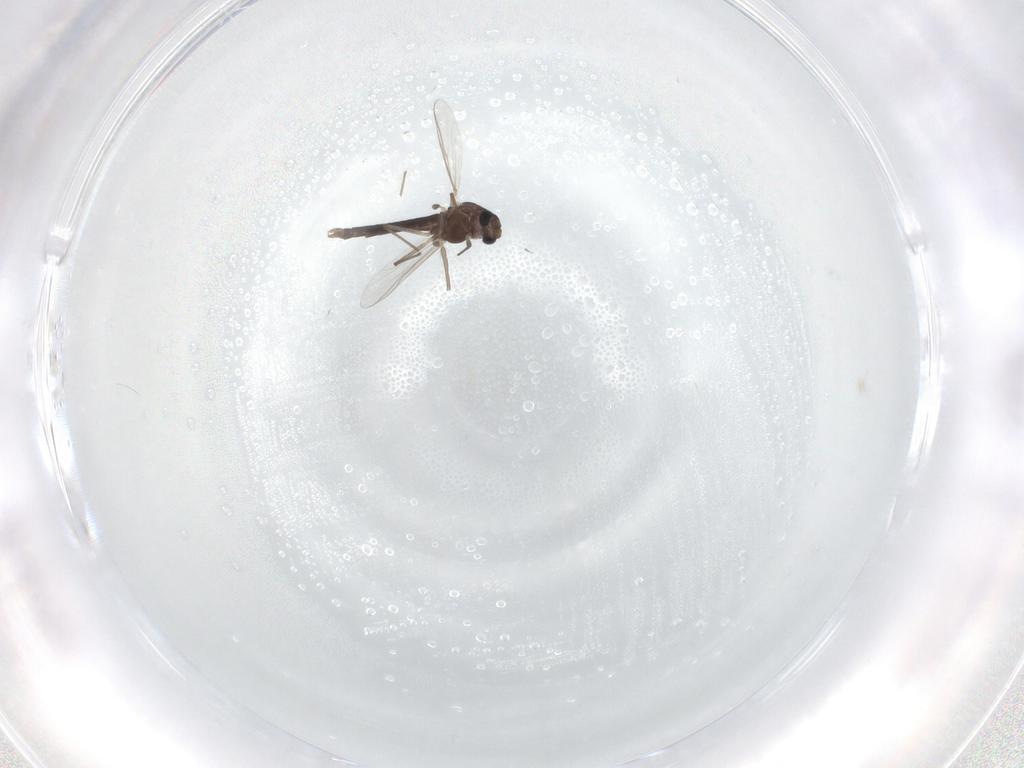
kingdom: Animalia
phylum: Arthropoda
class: Insecta
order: Diptera
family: Chironomidae
